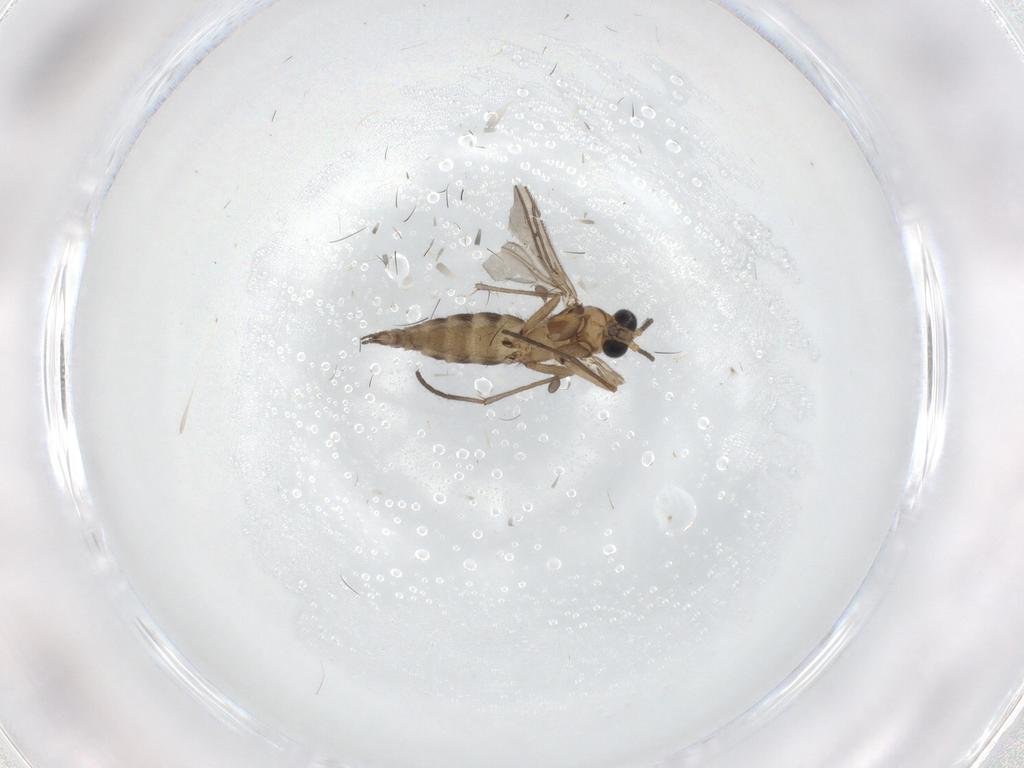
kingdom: Animalia
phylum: Arthropoda
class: Insecta
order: Diptera
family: Sciaridae
